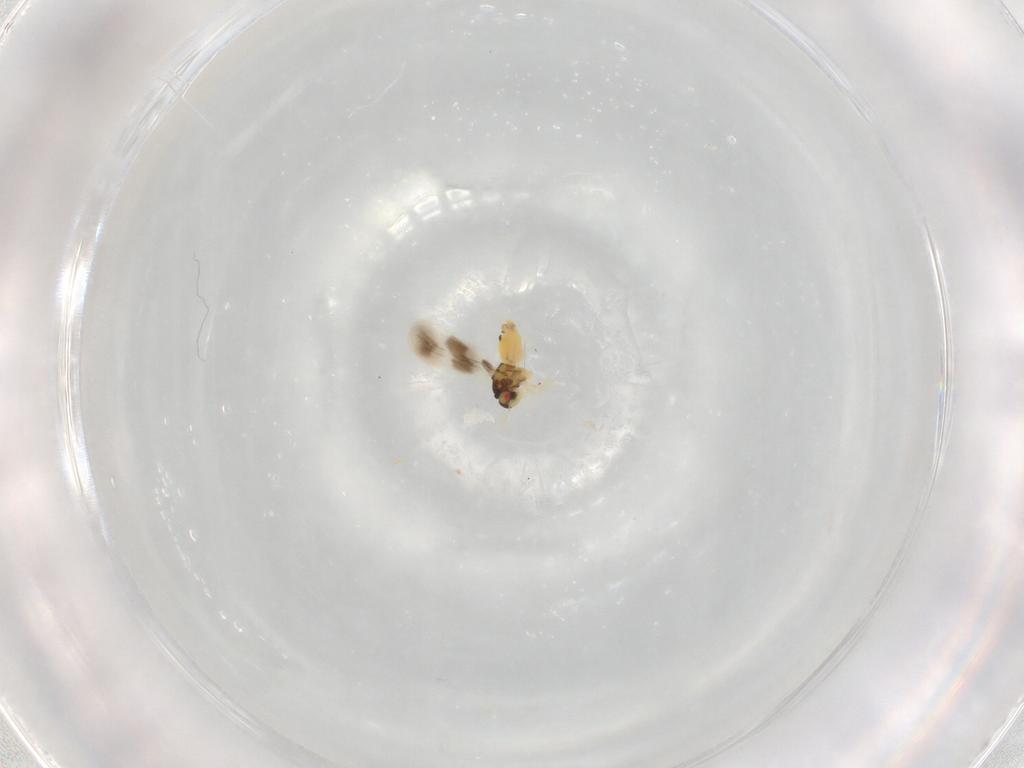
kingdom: Animalia
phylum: Arthropoda
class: Insecta
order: Hemiptera
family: Aleyrodidae
